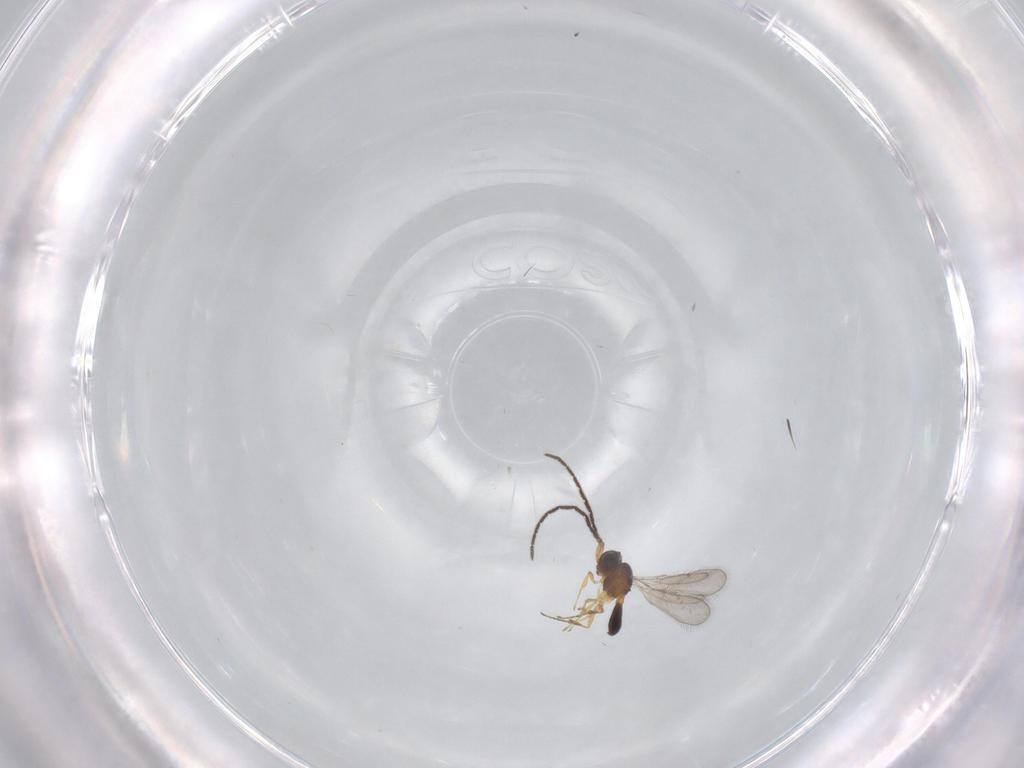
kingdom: Animalia
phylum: Arthropoda
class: Insecta
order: Hymenoptera
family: Scelionidae
